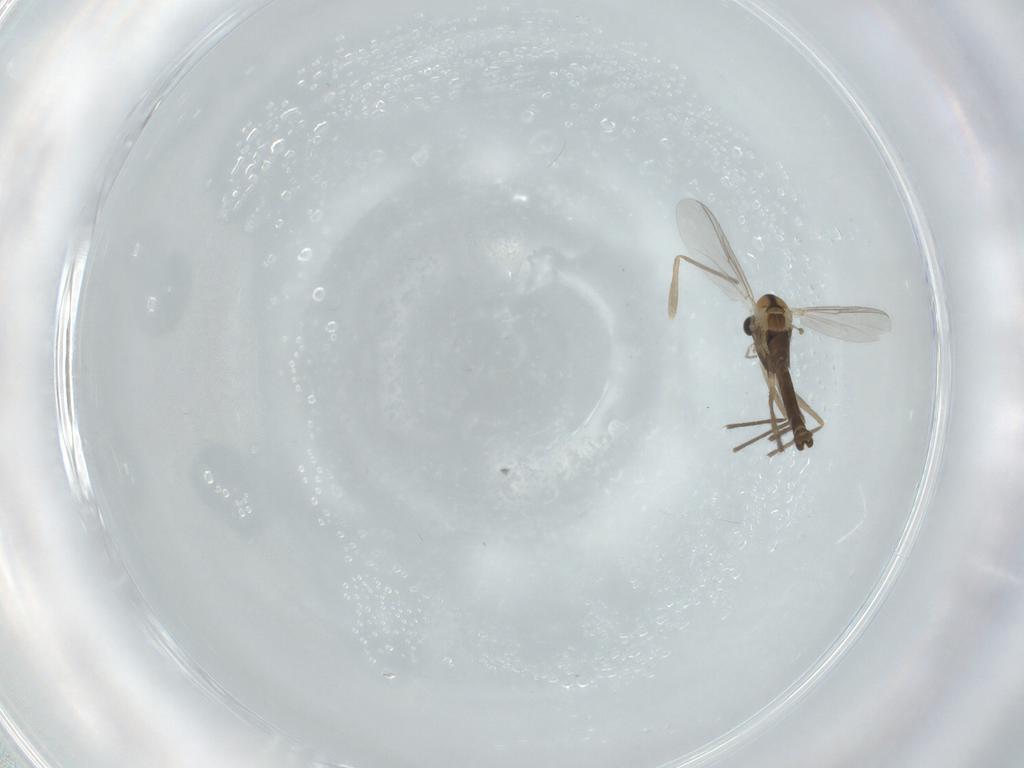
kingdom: Animalia
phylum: Arthropoda
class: Insecta
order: Diptera
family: Chironomidae
